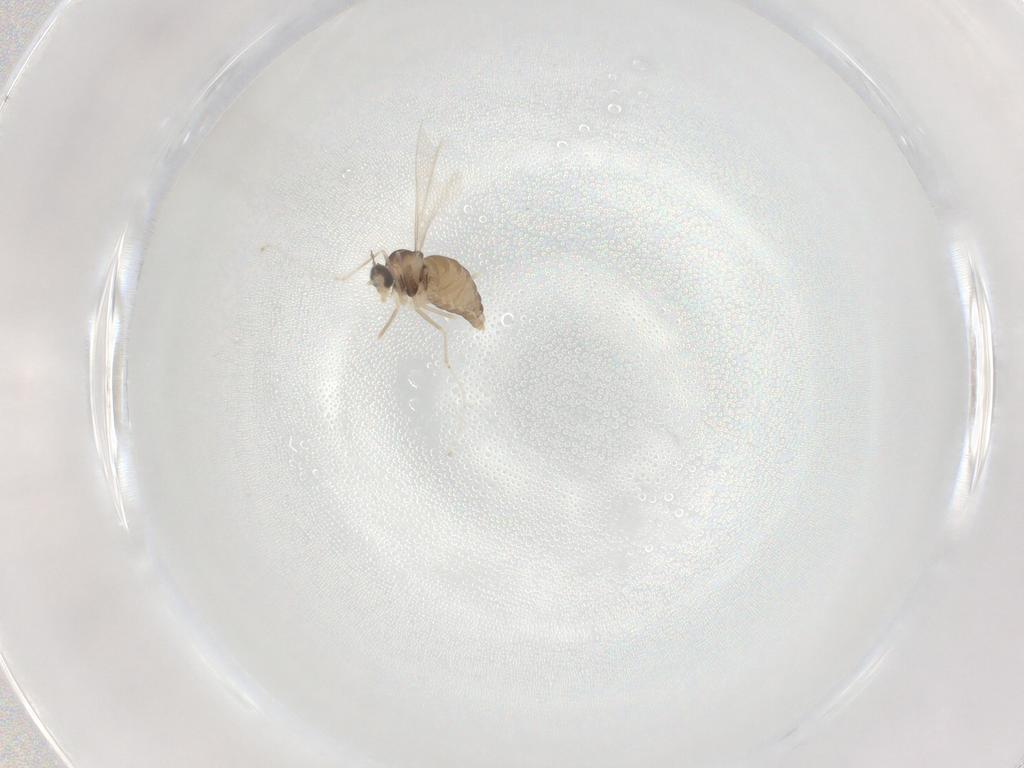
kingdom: Animalia
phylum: Arthropoda
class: Insecta
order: Diptera
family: Cecidomyiidae
